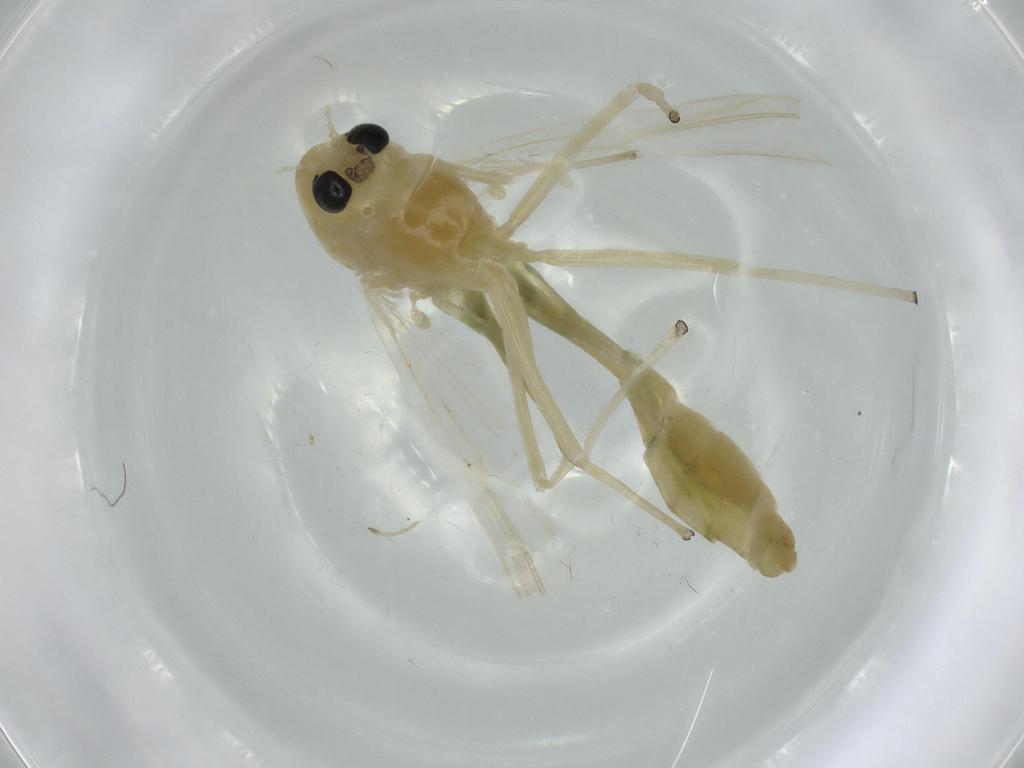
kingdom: Animalia
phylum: Arthropoda
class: Insecta
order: Diptera
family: Chironomidae
